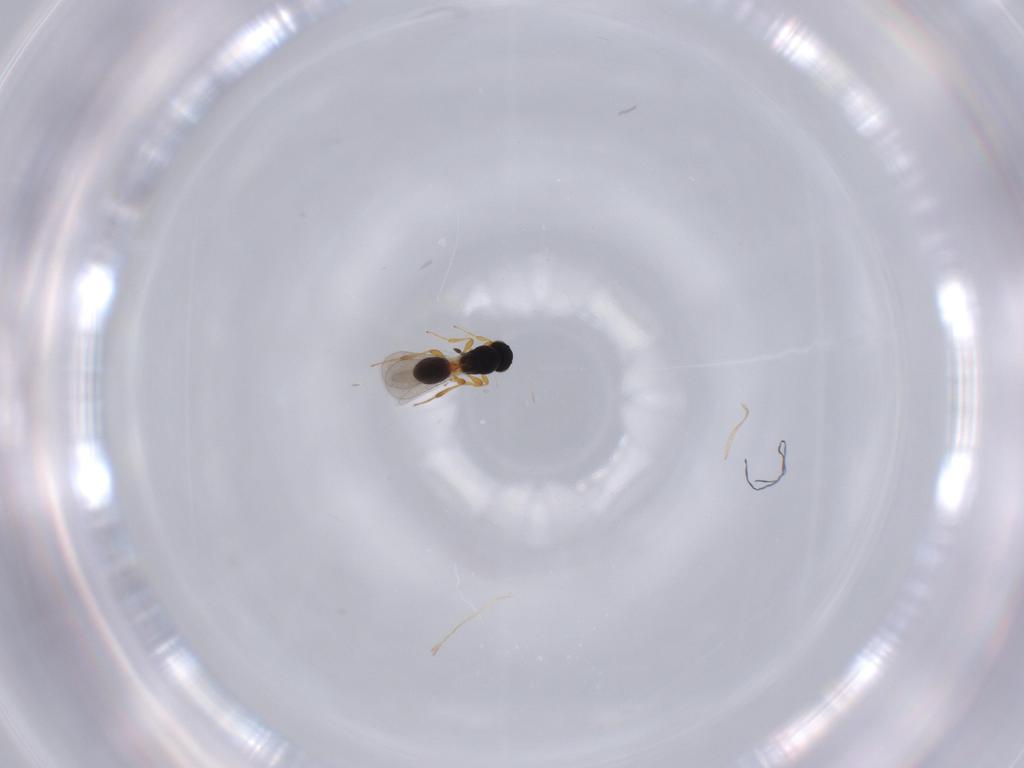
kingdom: Animalia
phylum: Arthropoda
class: Insecta
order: Hymenoptera
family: Platygastridae
